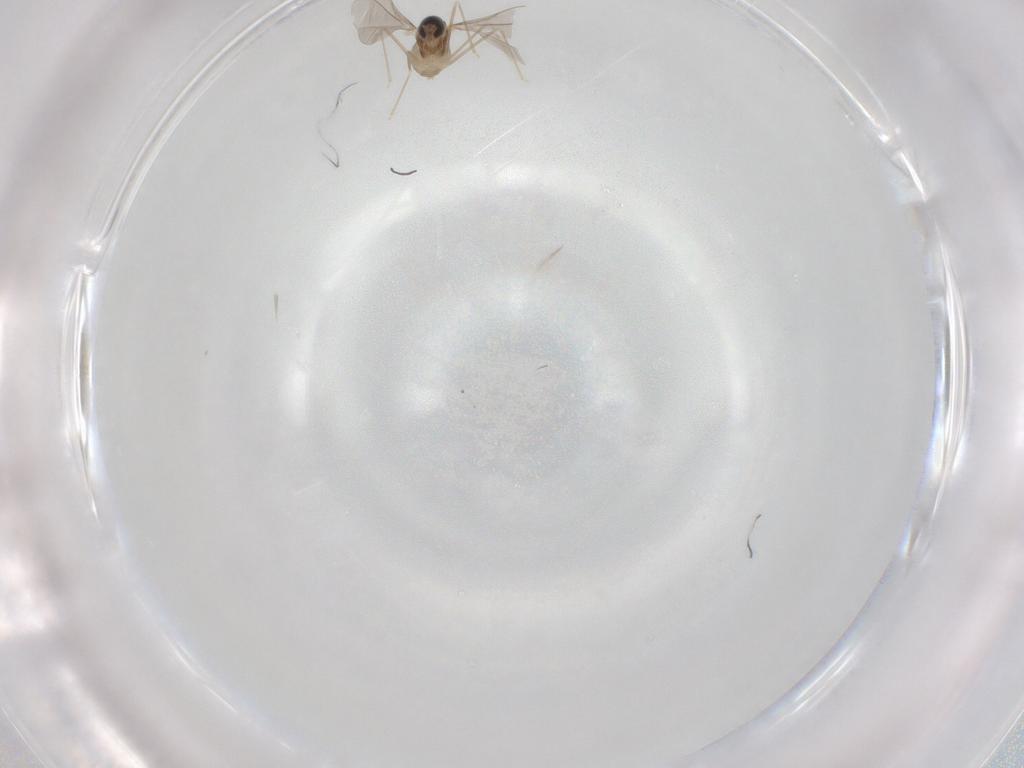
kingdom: Animalia
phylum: Arthropoda
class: Insecta
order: Diptera
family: Cecidomyiidae
